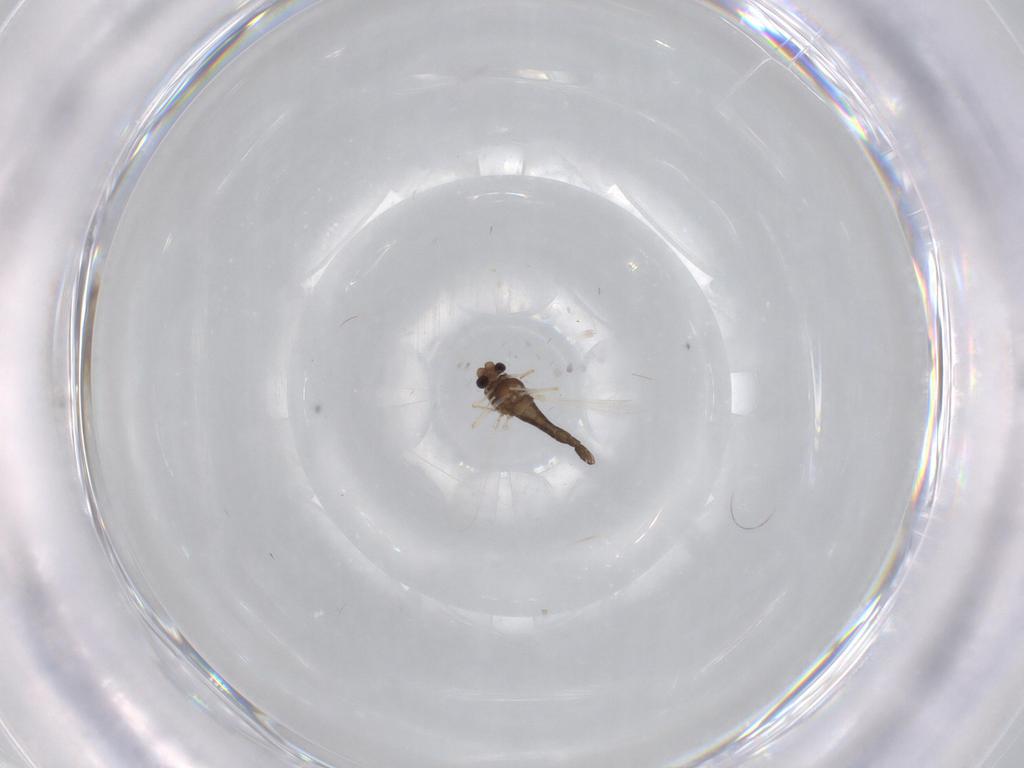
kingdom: Animalia
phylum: Arthropoda
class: Insecta
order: Diptera
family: Chironomidae
